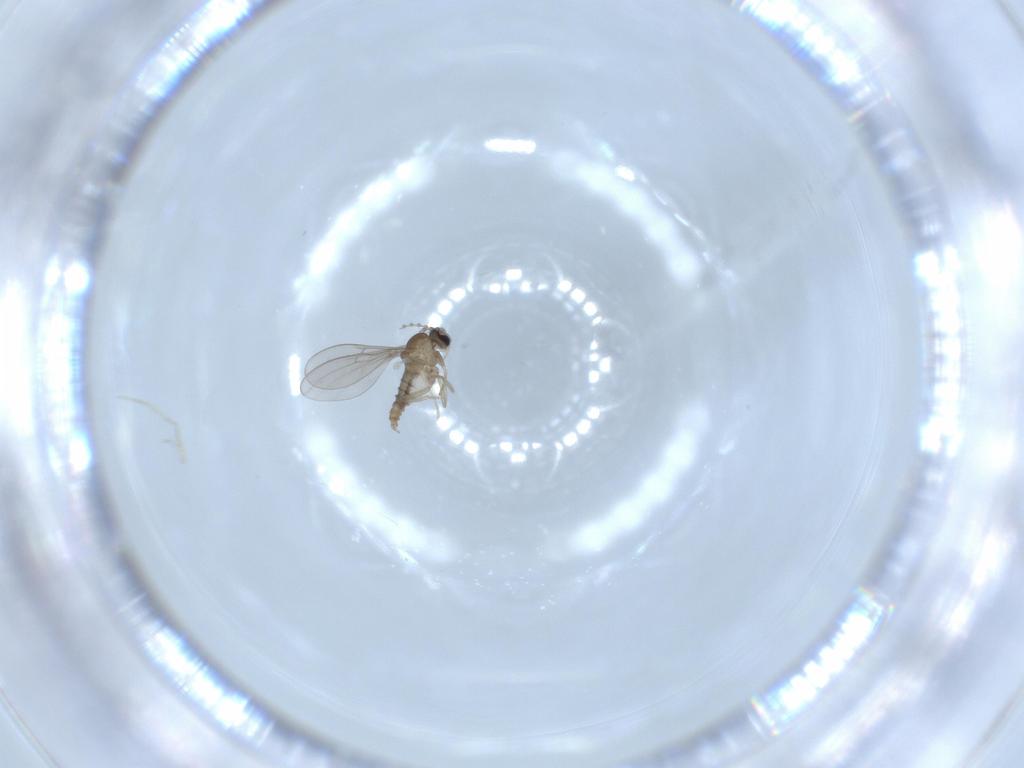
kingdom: Animalia
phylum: Arthropoda
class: Insecta
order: Diptera
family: Cecidomyiidae
